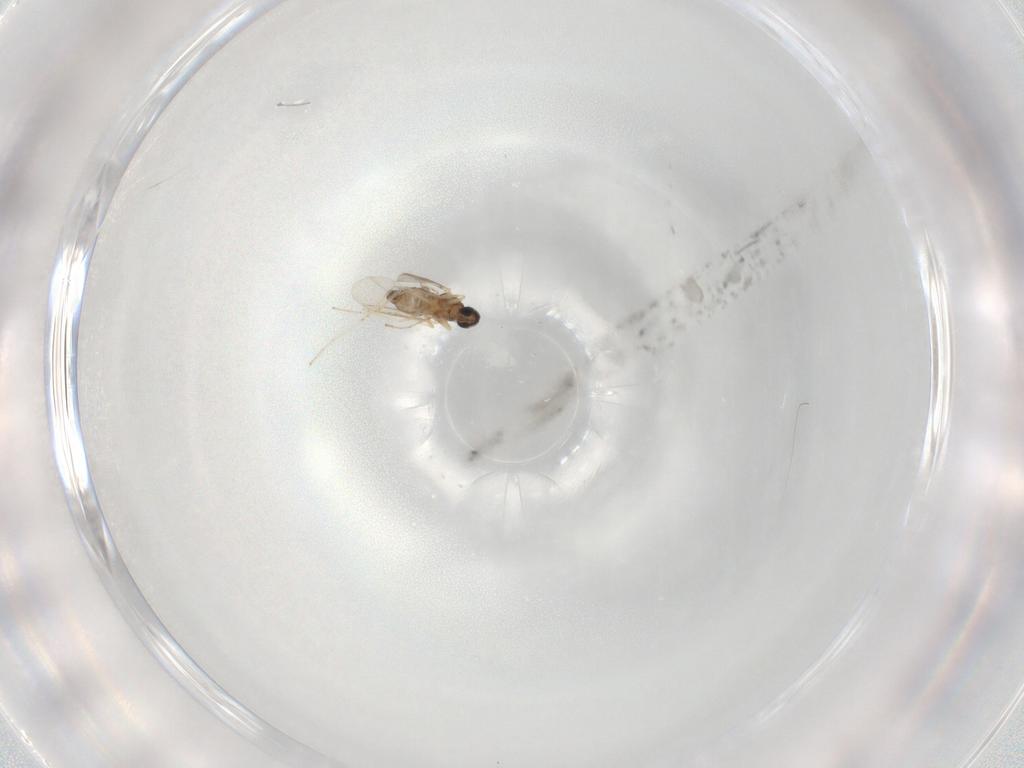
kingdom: Animalia
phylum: Arthropoda
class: Insecta
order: Diptera
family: Cecidomyiidae
